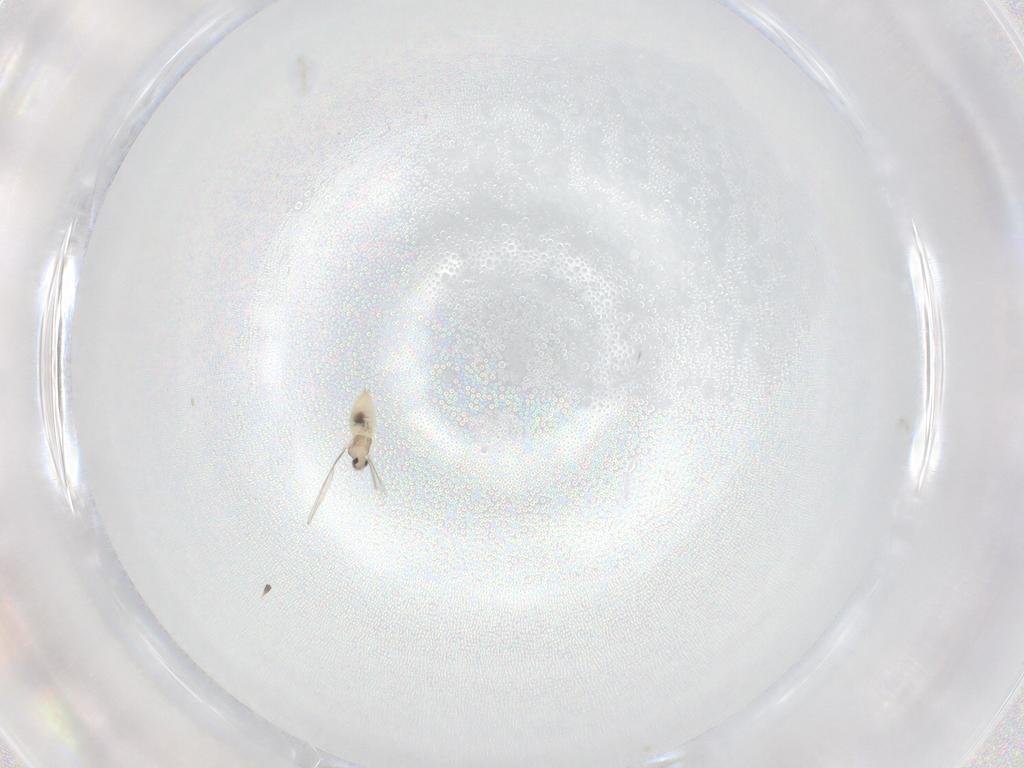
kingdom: Animalia
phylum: Arthropoda
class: Insecta
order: Diptera
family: Cecidomyiidae
